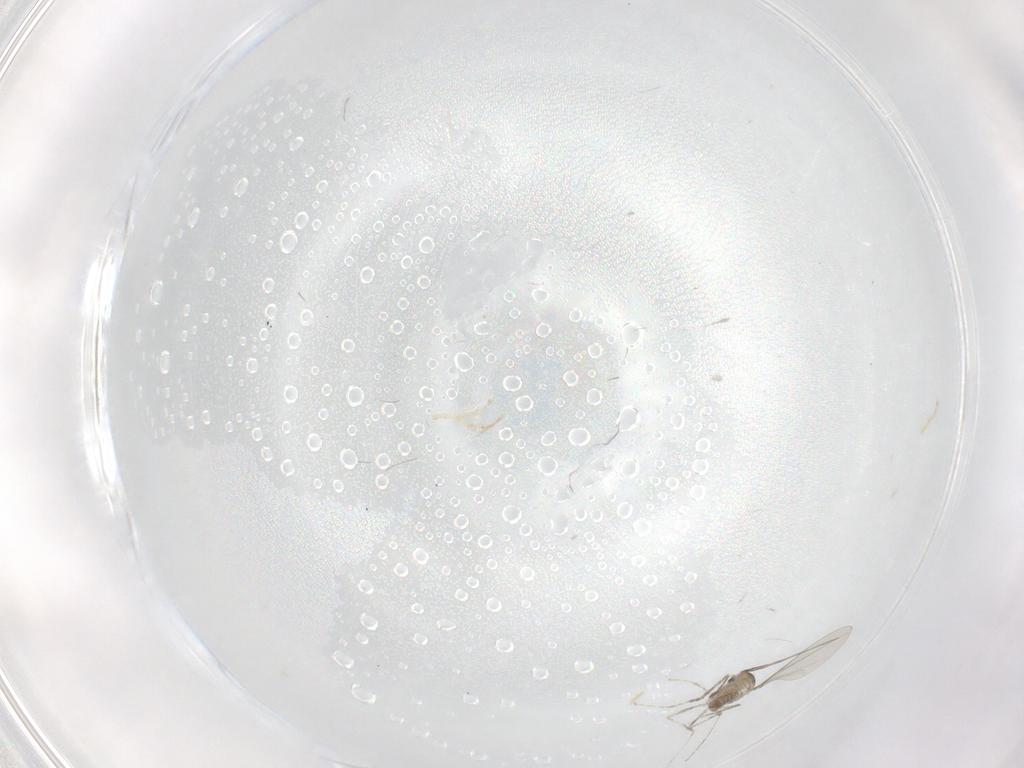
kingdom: Animalia
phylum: Arthropoda
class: Insecta
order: Diptera
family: Cecidomyiidae
